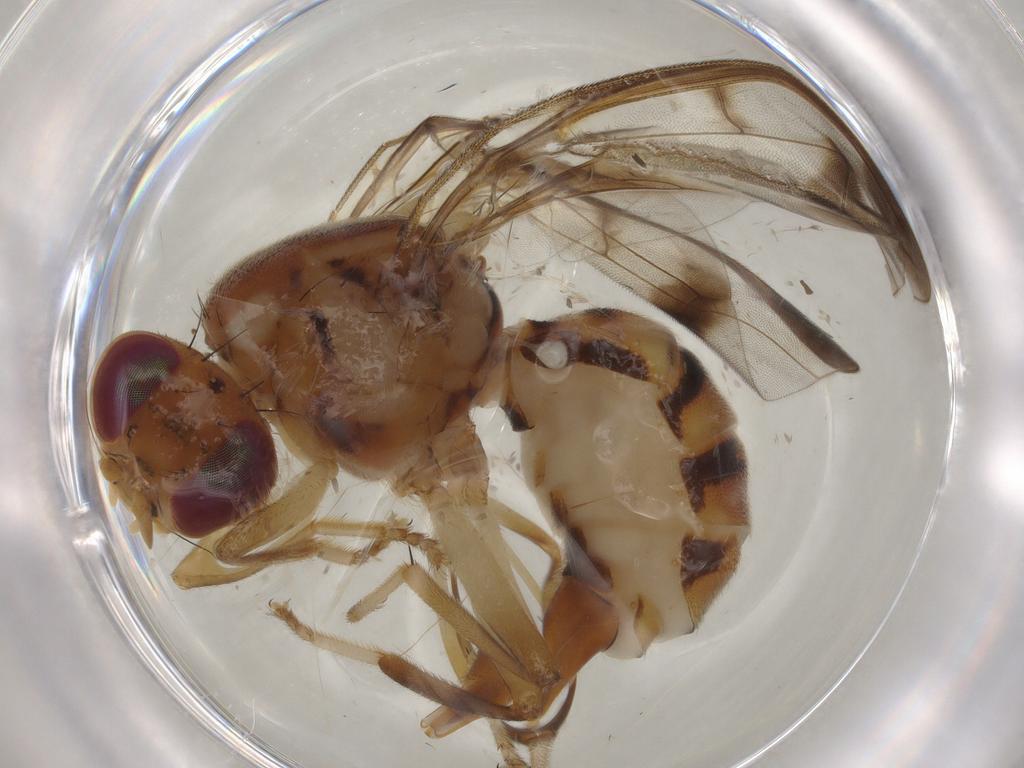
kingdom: Animalia
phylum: Arthropoda
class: Insecta
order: Diptera
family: Tephritidae
